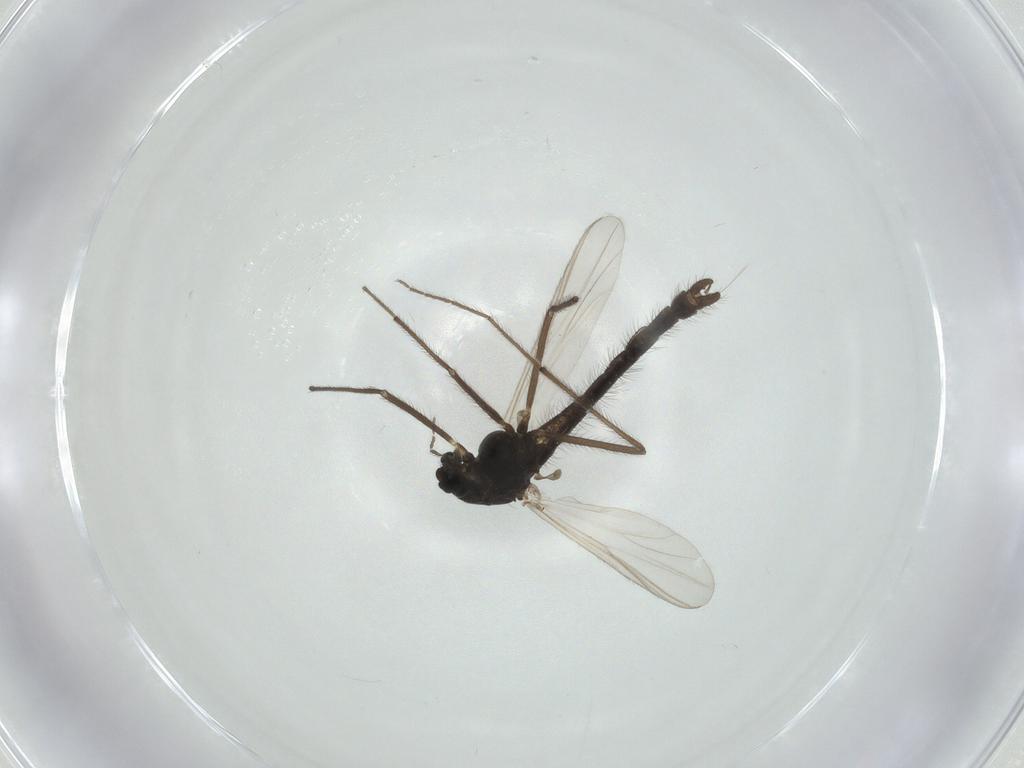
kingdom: Animalia
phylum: Arthropoda
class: Insecta
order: Diptera
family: Chironomidae
